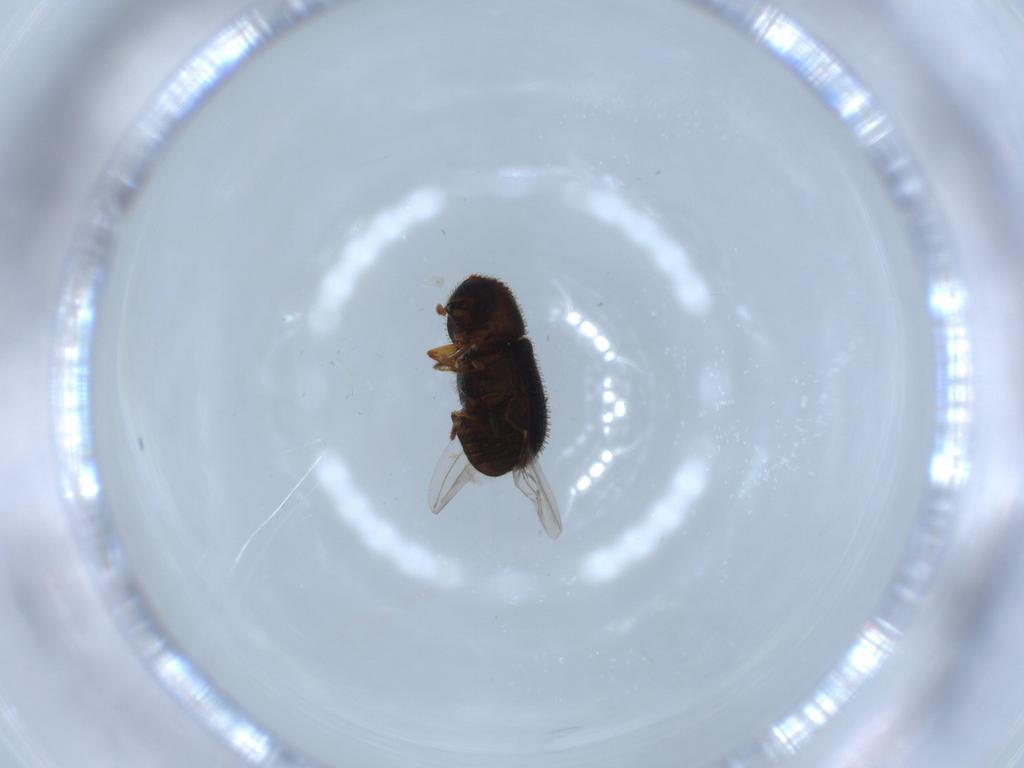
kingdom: Animalia
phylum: Arthropoda
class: Insecta
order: Coleoptera
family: Curculionidae
